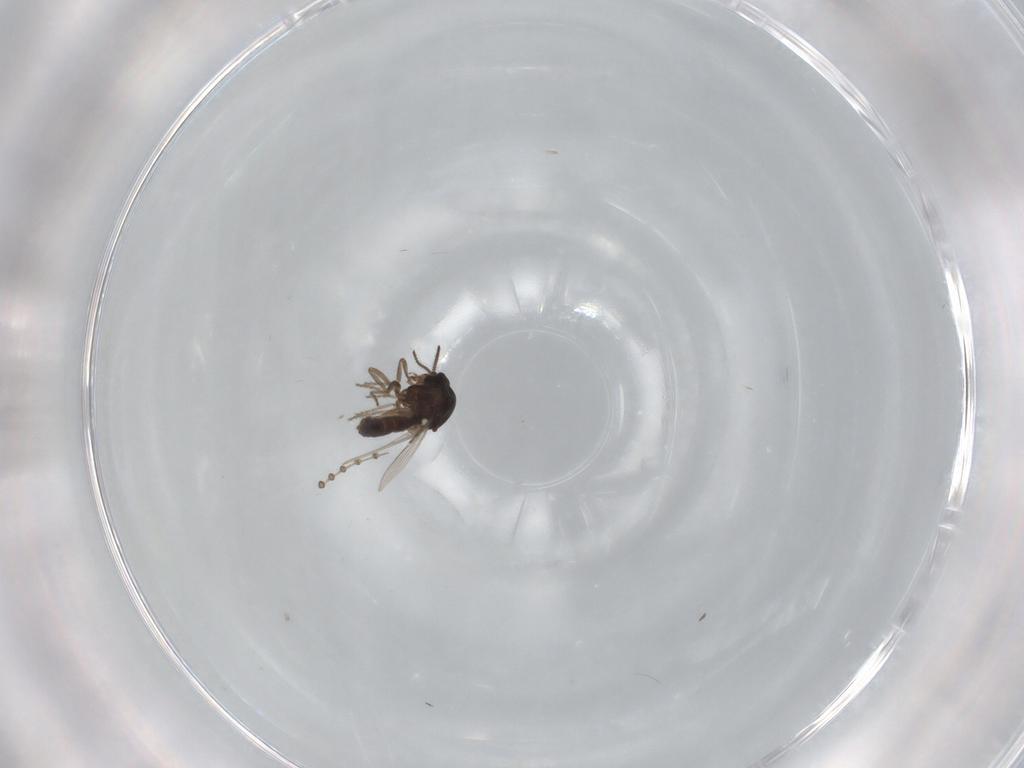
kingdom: Animalia
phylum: Arthropoda
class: Insecta
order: Diptera
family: Ceratopogonidae
